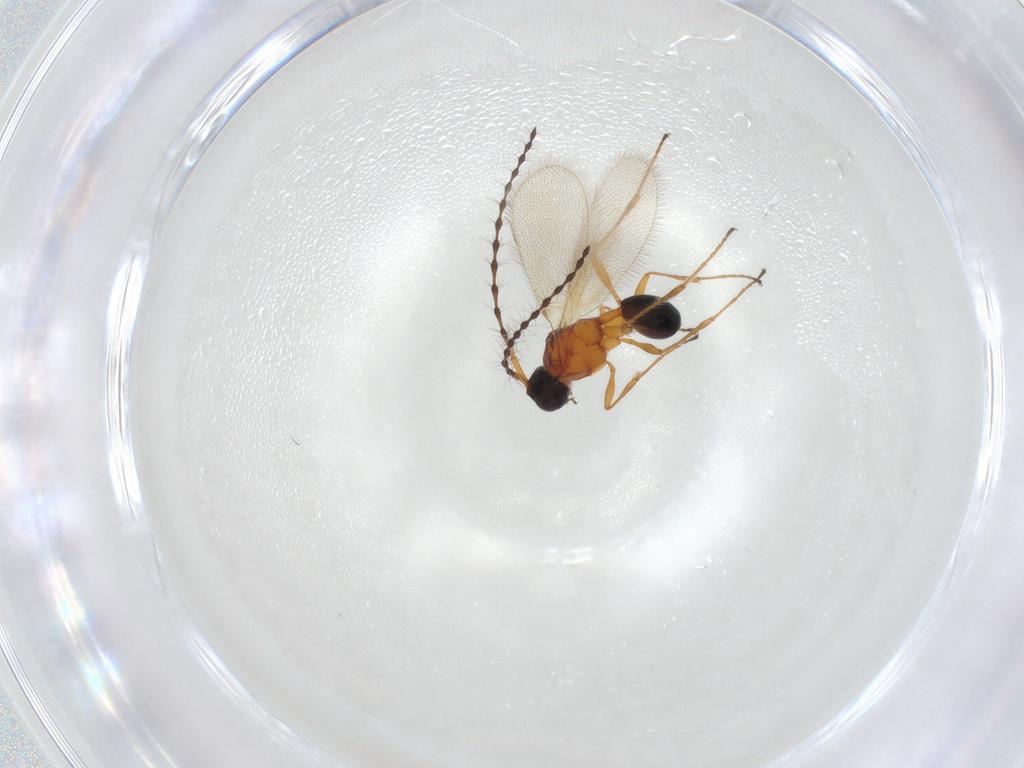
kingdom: Animalia
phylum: Arthropoda
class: Insecta
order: Hymenoptera
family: Diapriidae
